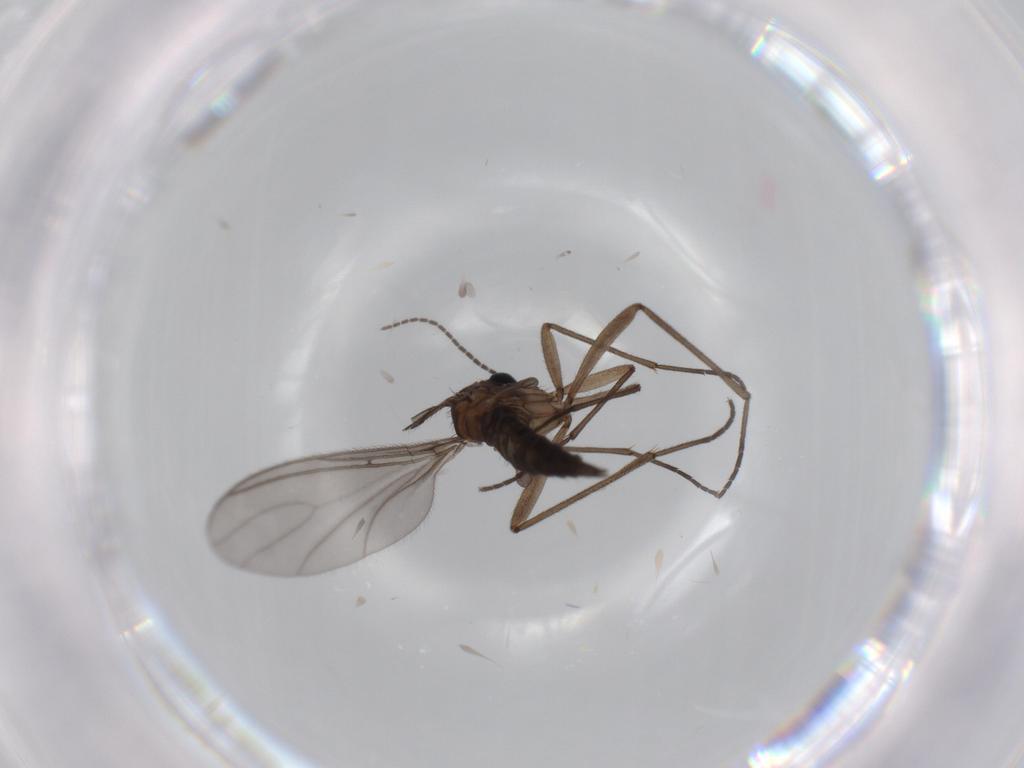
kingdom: Animalia
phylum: Arthropoda
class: Insecta
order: Diptera
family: Sciaridae
